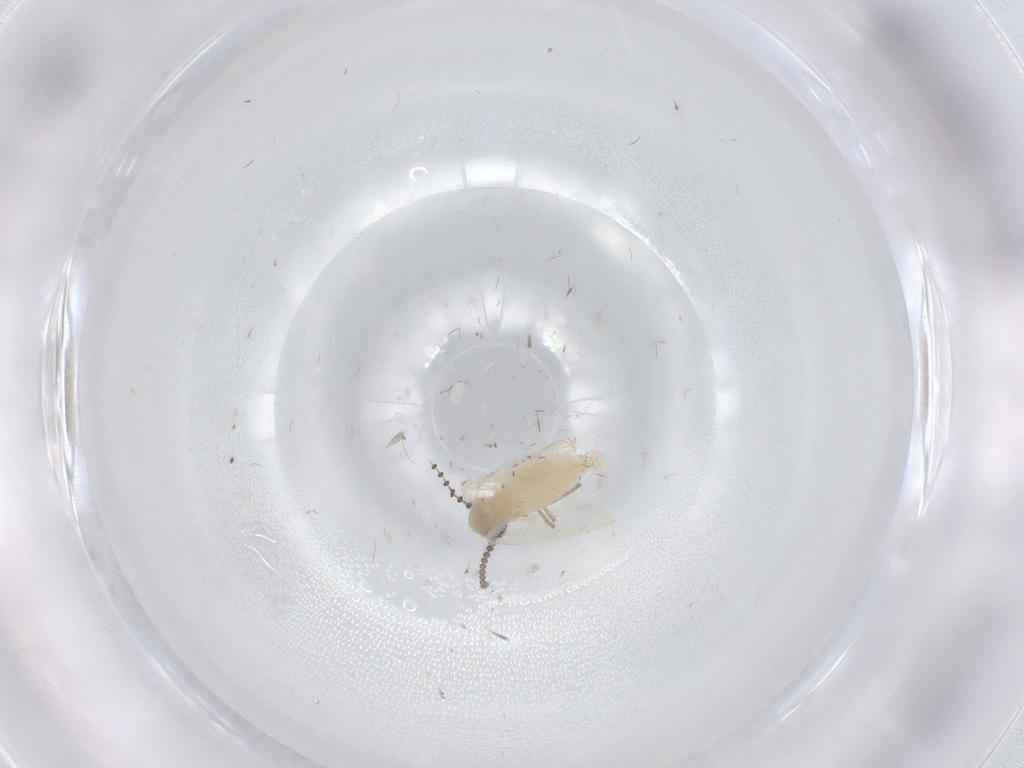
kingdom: Animalia
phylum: Arthropoda
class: Insecta
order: Diptera
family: Psychodidae
